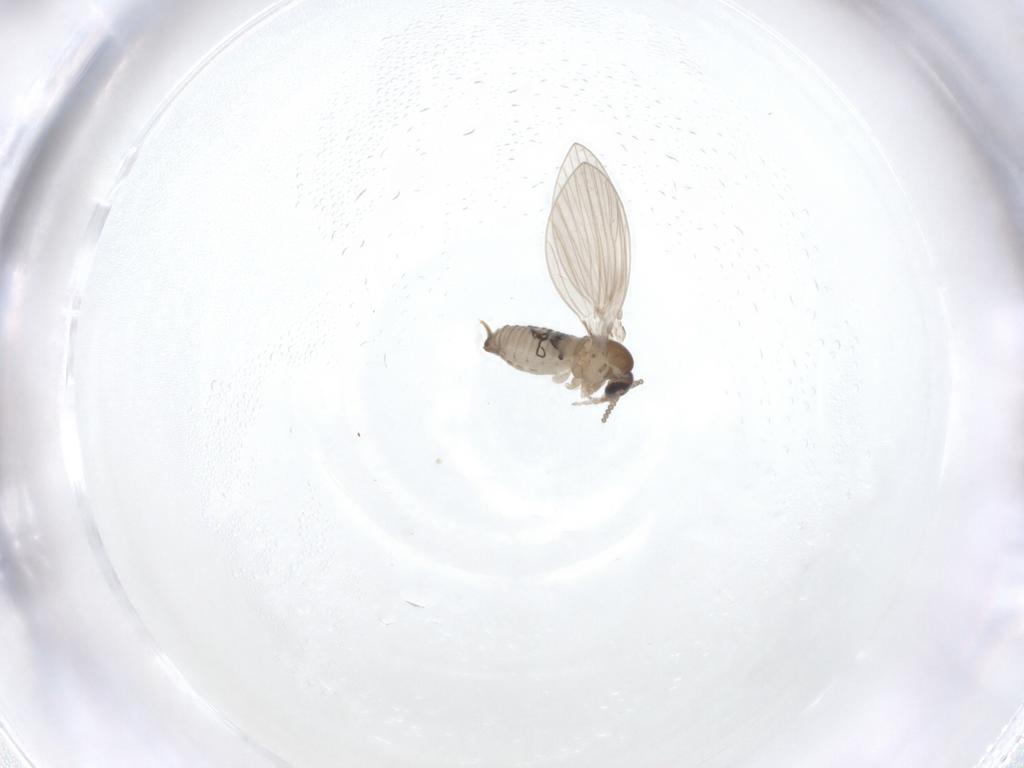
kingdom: Animalia
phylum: Arthropoda
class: Insecta
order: Diptera
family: Psychodidae
